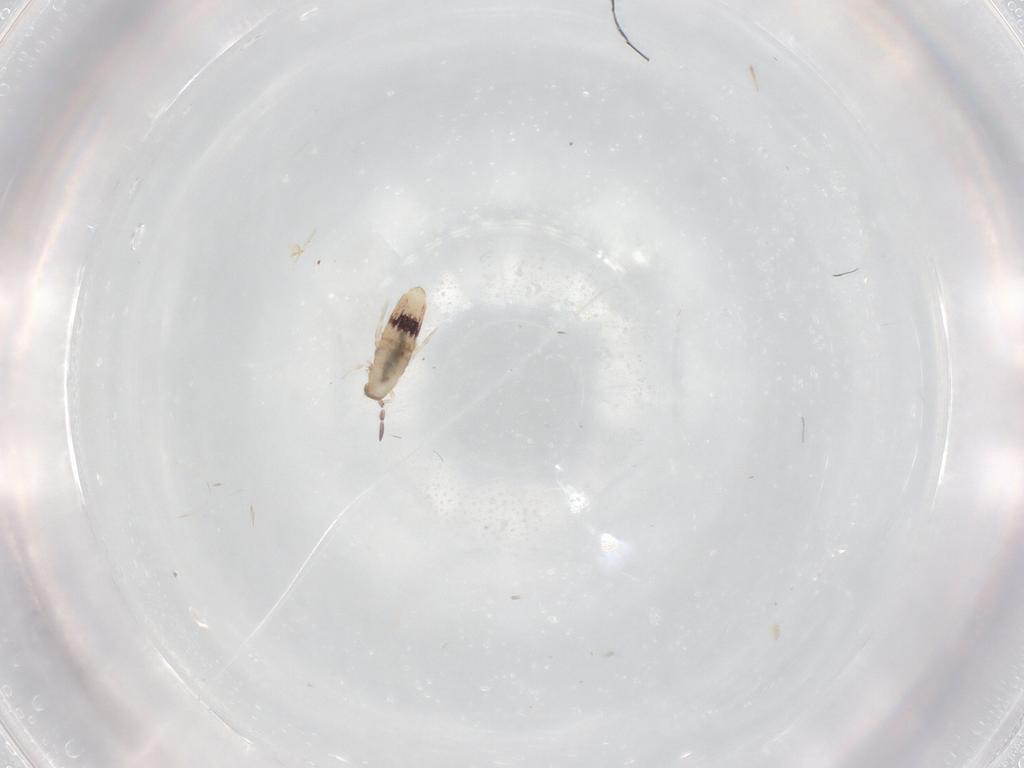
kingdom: Animalia
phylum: Arthropoda
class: Collembola
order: Entomobryomorpha
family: Entomobryidae
